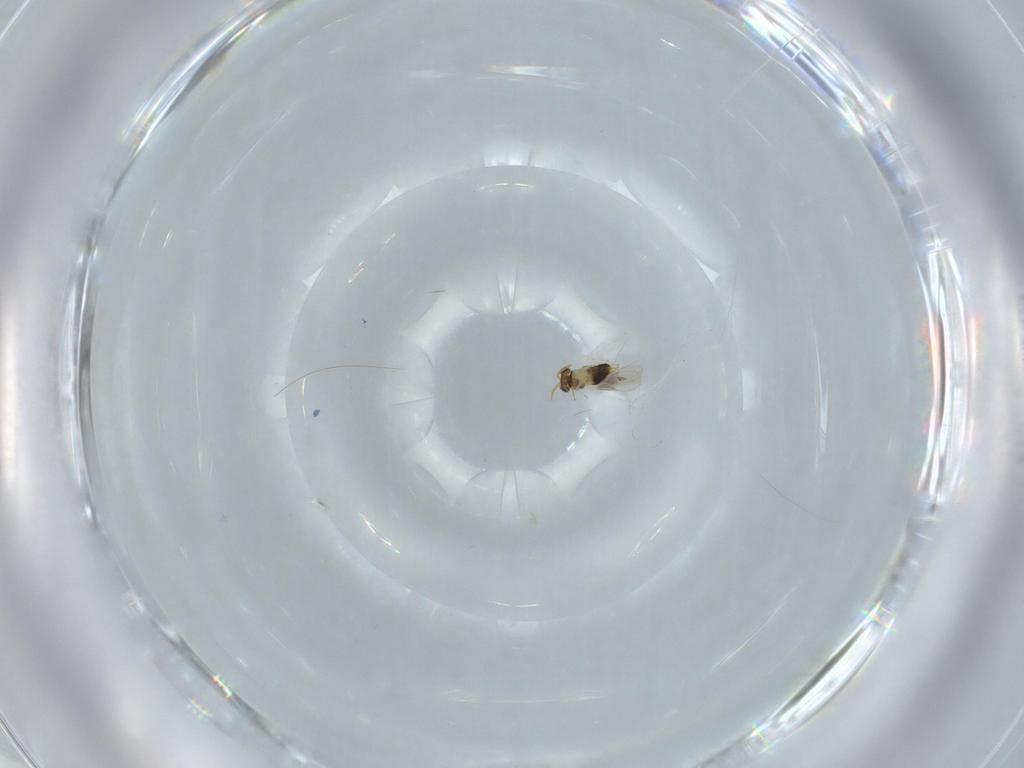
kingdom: Animalia
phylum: Arthropoda
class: Insecta
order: Hymenoptera
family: Aphelinidae
